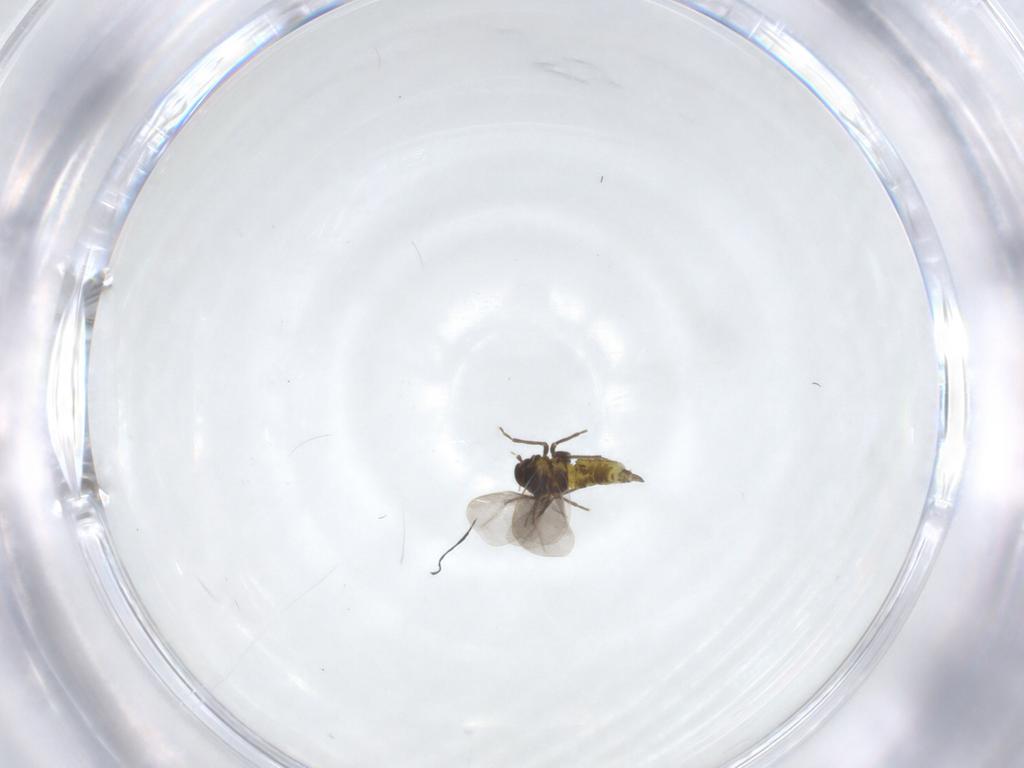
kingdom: Animalia
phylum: Arthropoda
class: Insecta
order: Hemiptera
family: Aleyrodidae
